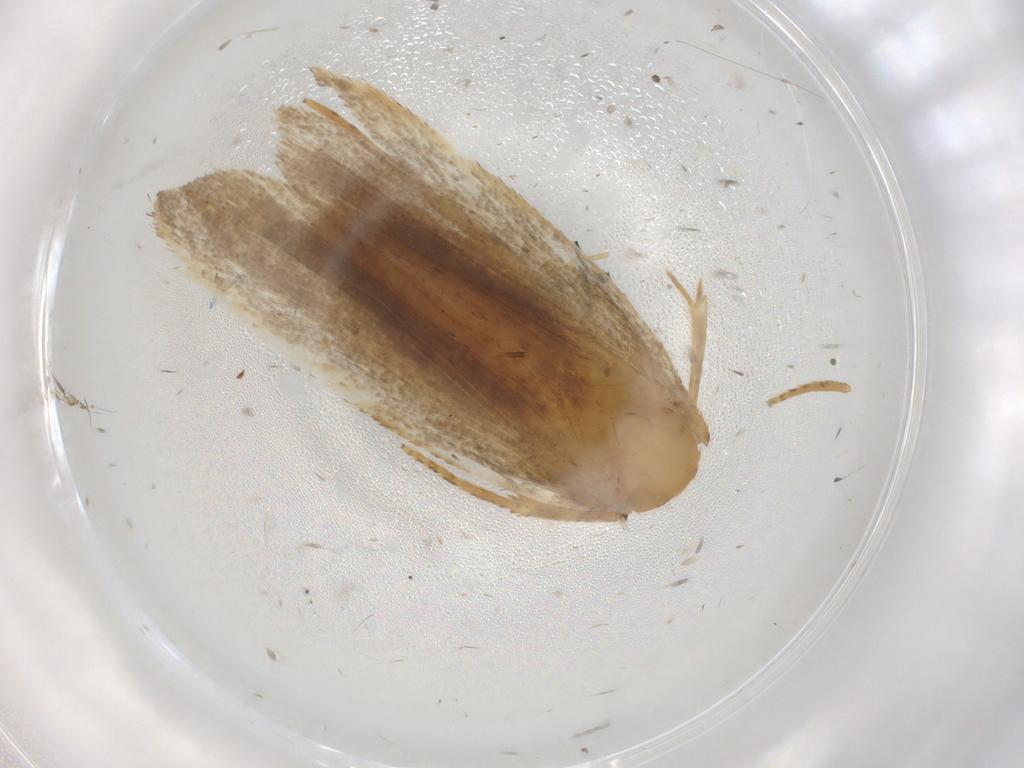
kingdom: Animalia
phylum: Arthropoda
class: Insecta
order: Lepidoptera
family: Autostichidae
